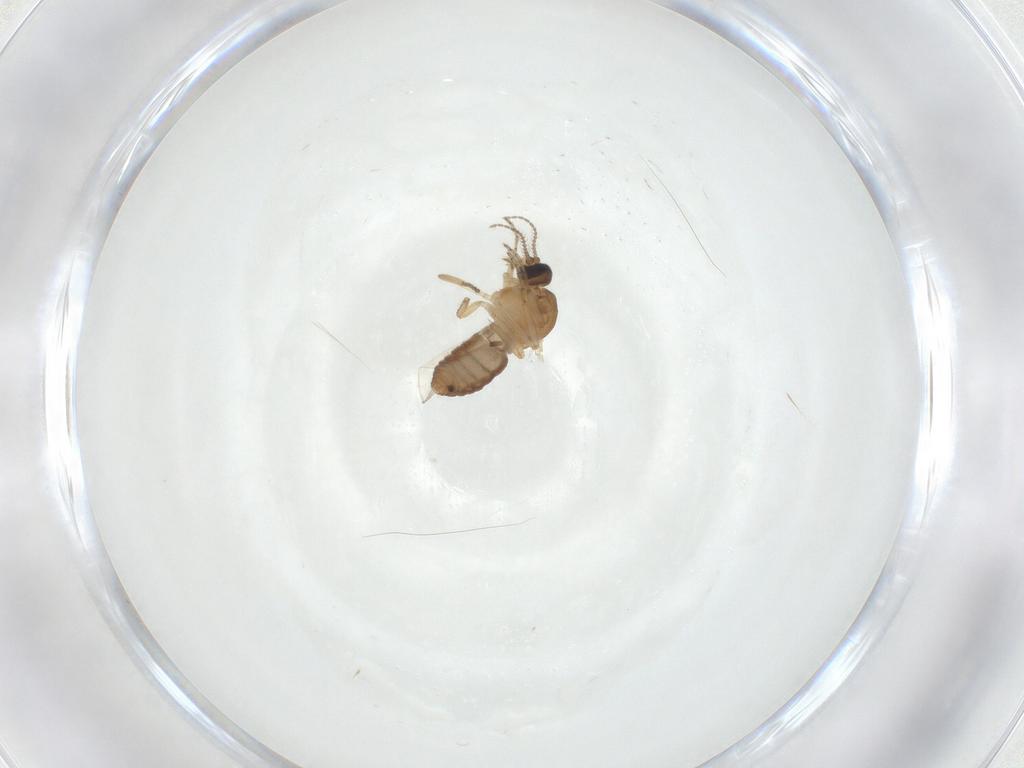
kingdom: Animalia
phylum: Arthropoda
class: Insecta
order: Diptera
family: Ceratopogonidae
